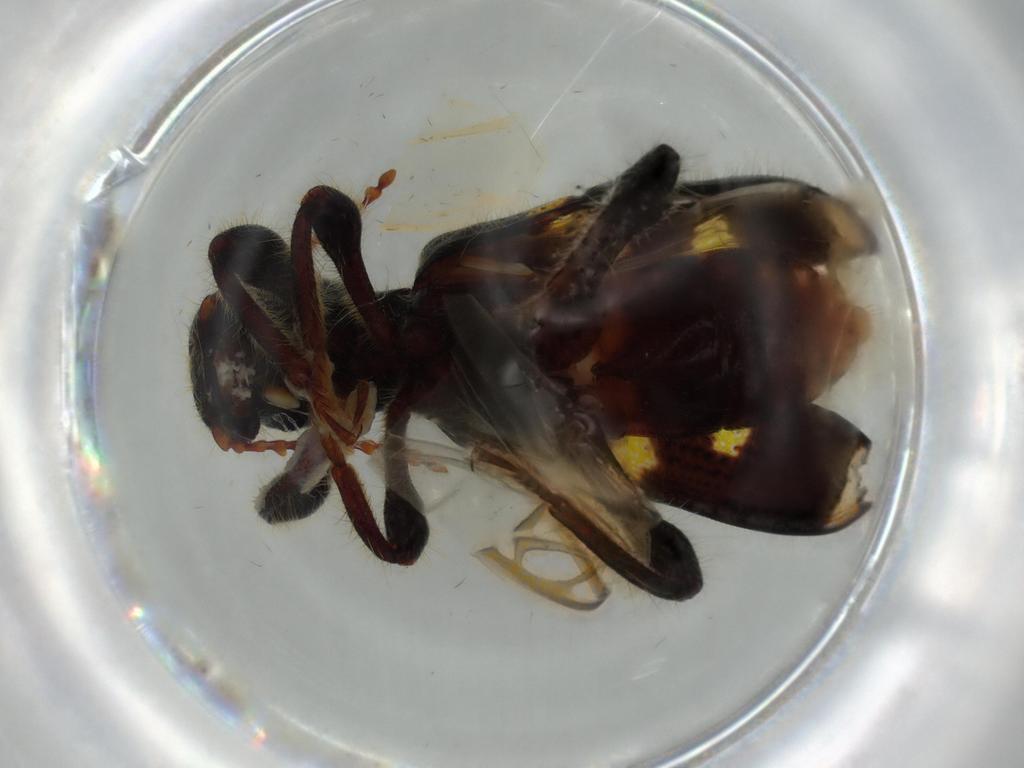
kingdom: Animalia
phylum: Arthropoda
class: Insecta
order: Coleoptera
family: Coccinellidae
